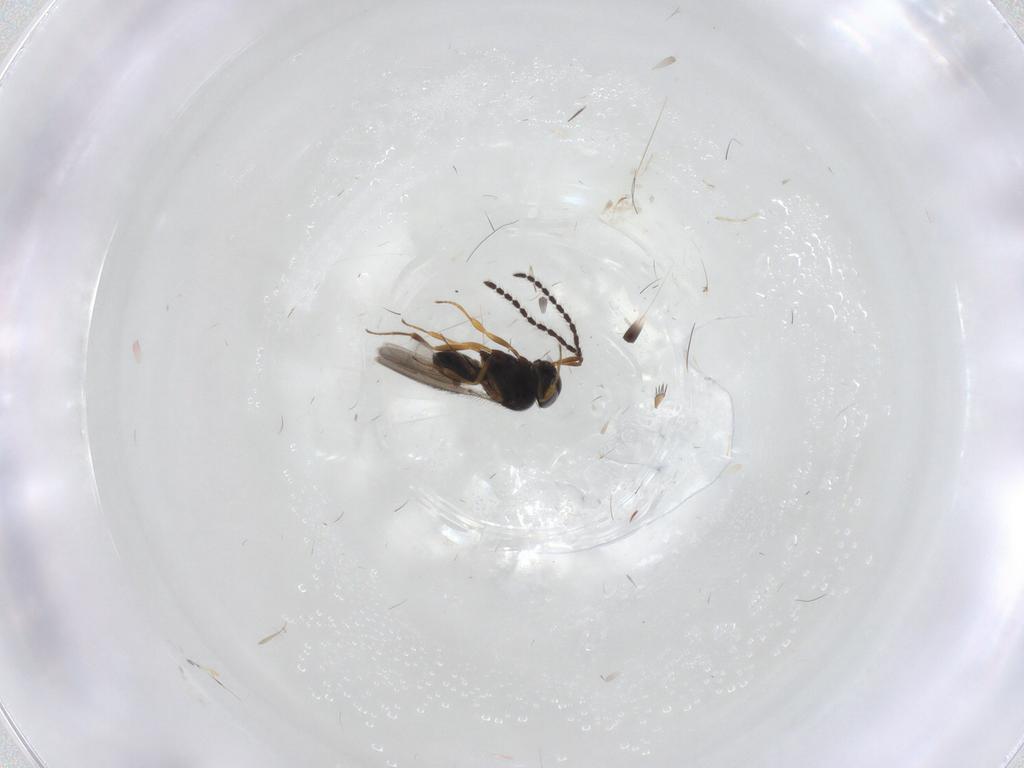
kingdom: Animalia
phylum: Arthropoda
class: Insecta
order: Hymenoptera
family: Scelionidae
